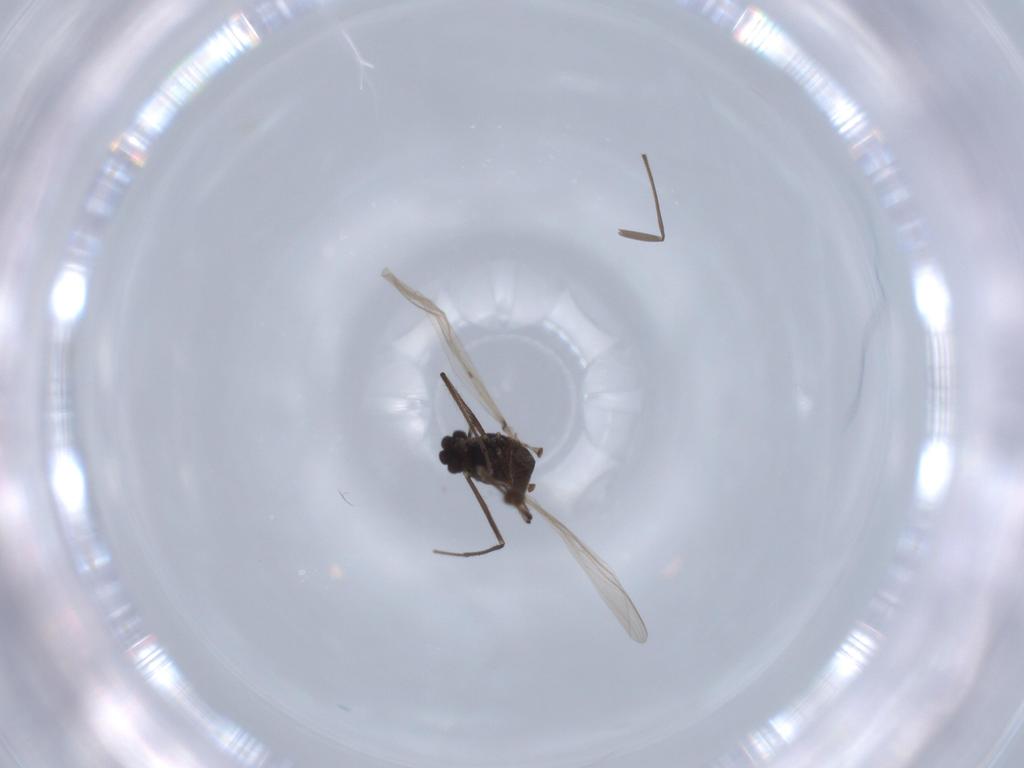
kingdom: Animalia
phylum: Arthropoda
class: Insecta
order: Diptera
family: Chironomidae
